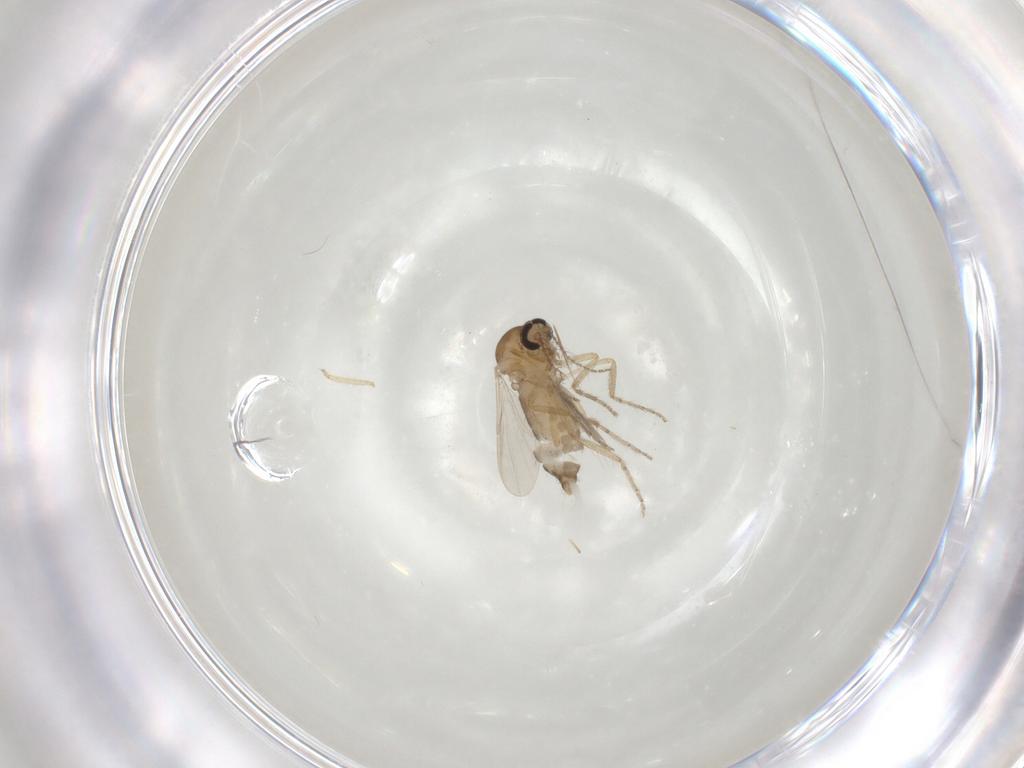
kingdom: Animalia
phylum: Arthropoda
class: Insecta
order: Diptera
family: Ceratopogonidae
